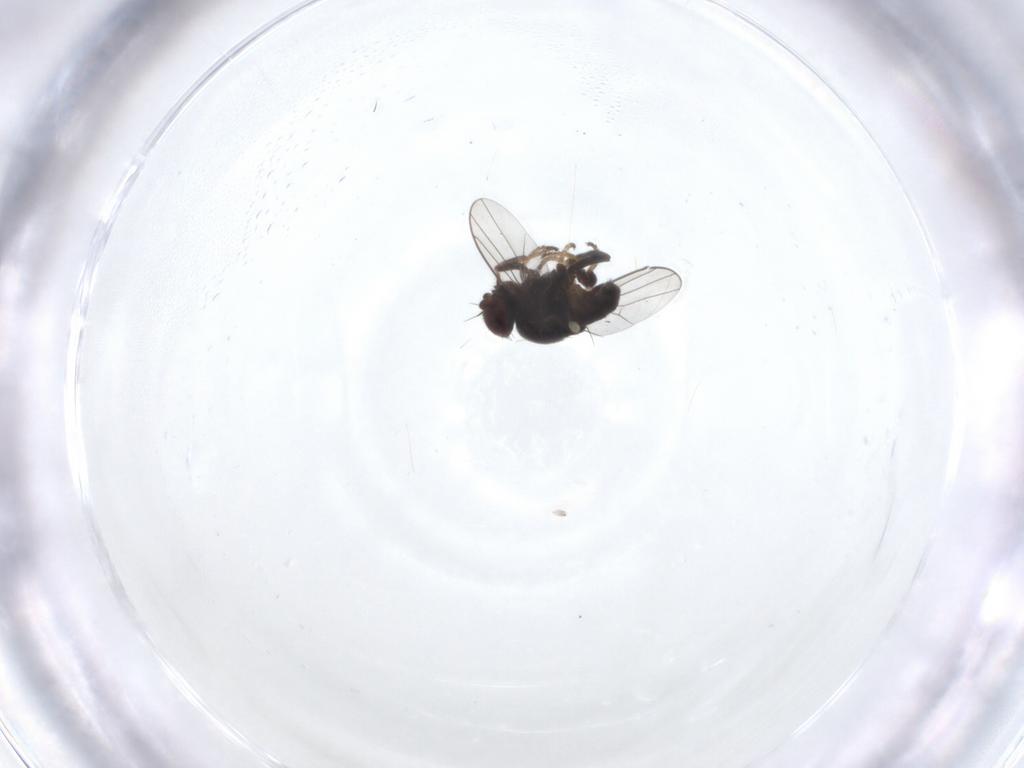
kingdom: Animalia
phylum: Arthropoda
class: Insecta
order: Diptera
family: Chloropidae
